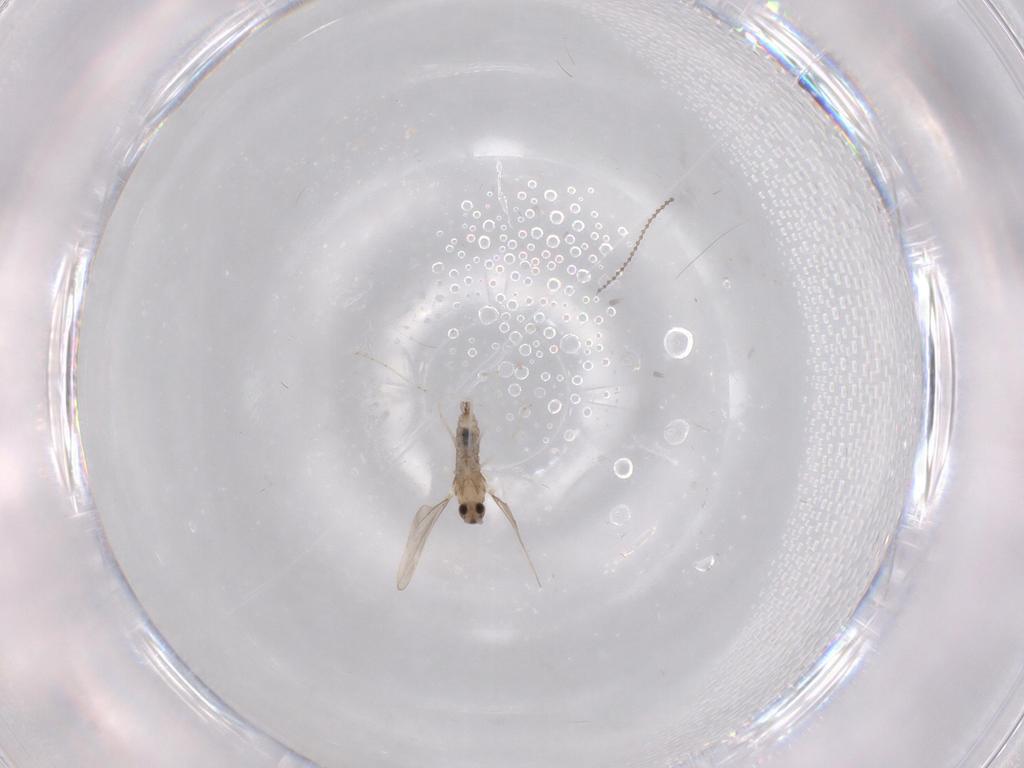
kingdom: Animalia
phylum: Arthropoda
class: Insecta
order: Diptera
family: Cecidomyiidae
